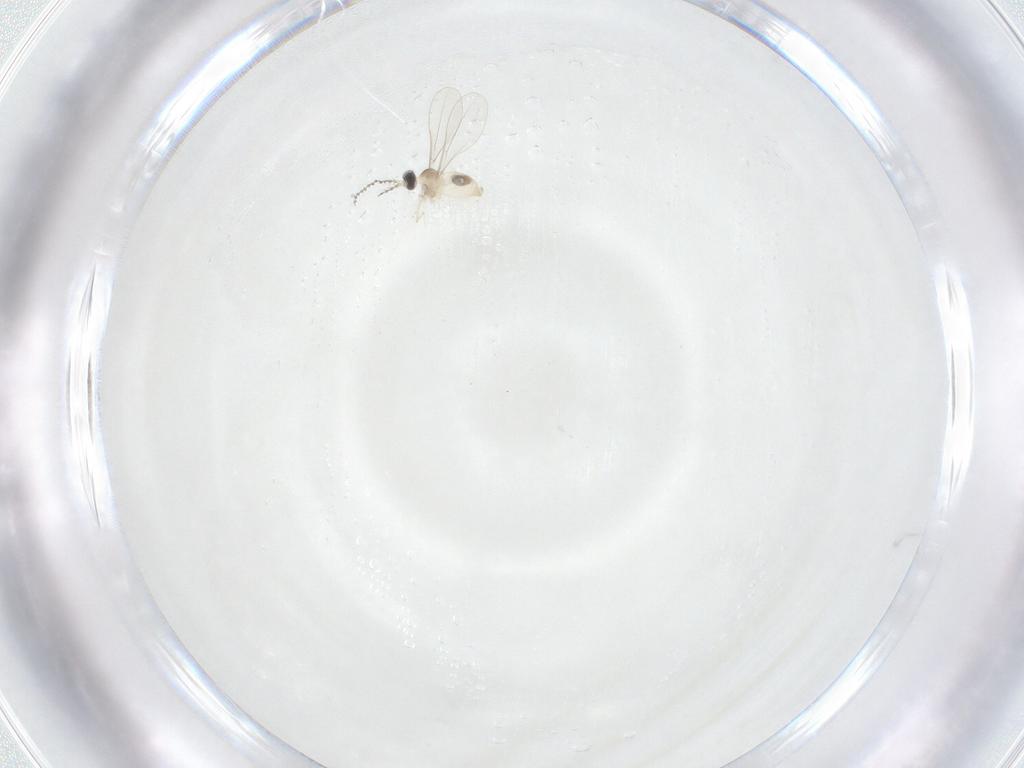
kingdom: Animalia
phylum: Arthropoda
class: Insecta
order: Diptera
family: Cecidomyiidae
